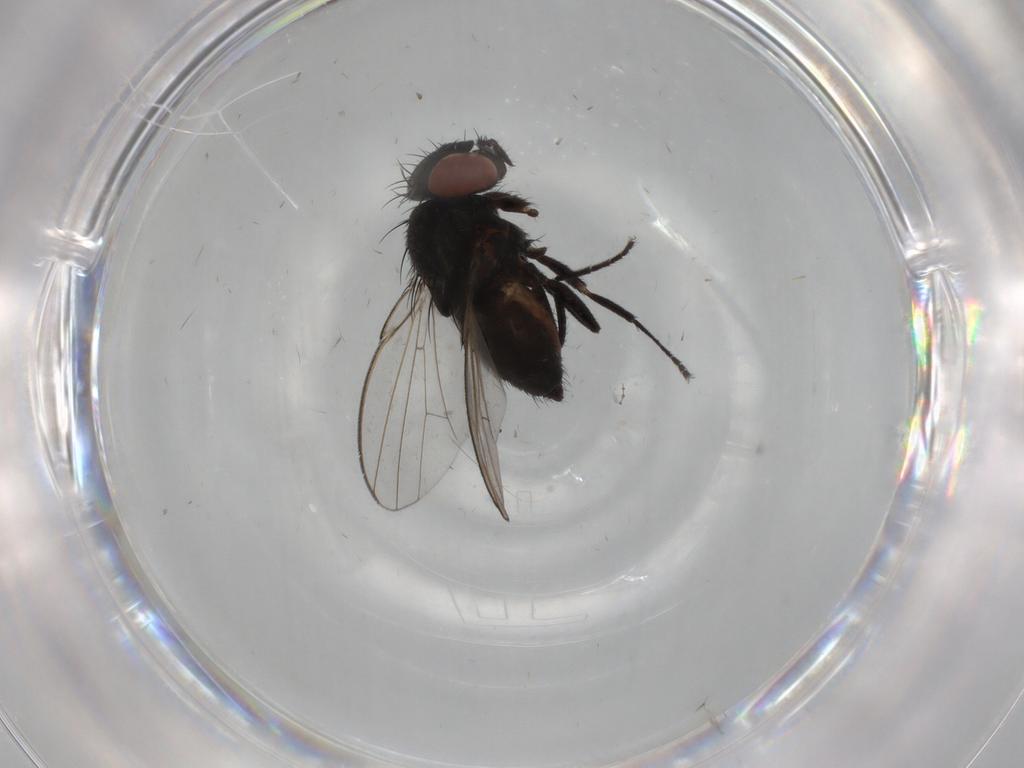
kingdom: Animalia
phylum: Arthropoda
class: Insecta
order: Diptera
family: Milichiidae
